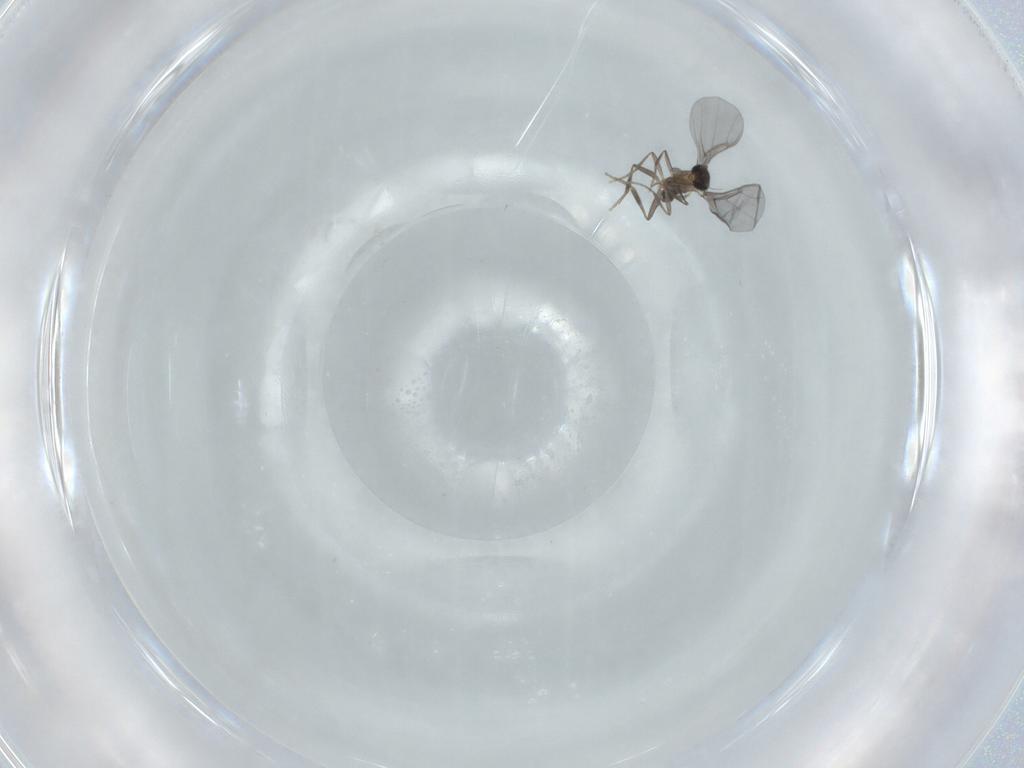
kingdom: Animalia
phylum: Arthropoda
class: Insecta
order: Diptera
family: Phoridae
